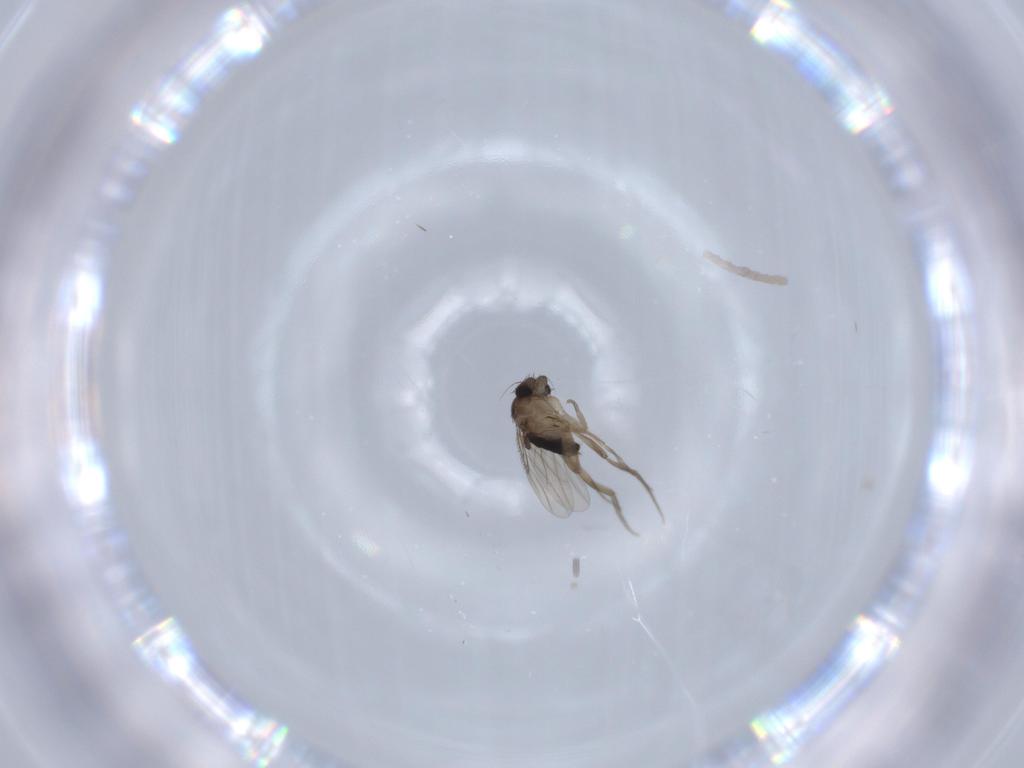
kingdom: Animalia
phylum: Arthropoda
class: Insecta
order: Diptera
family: Phoridae
